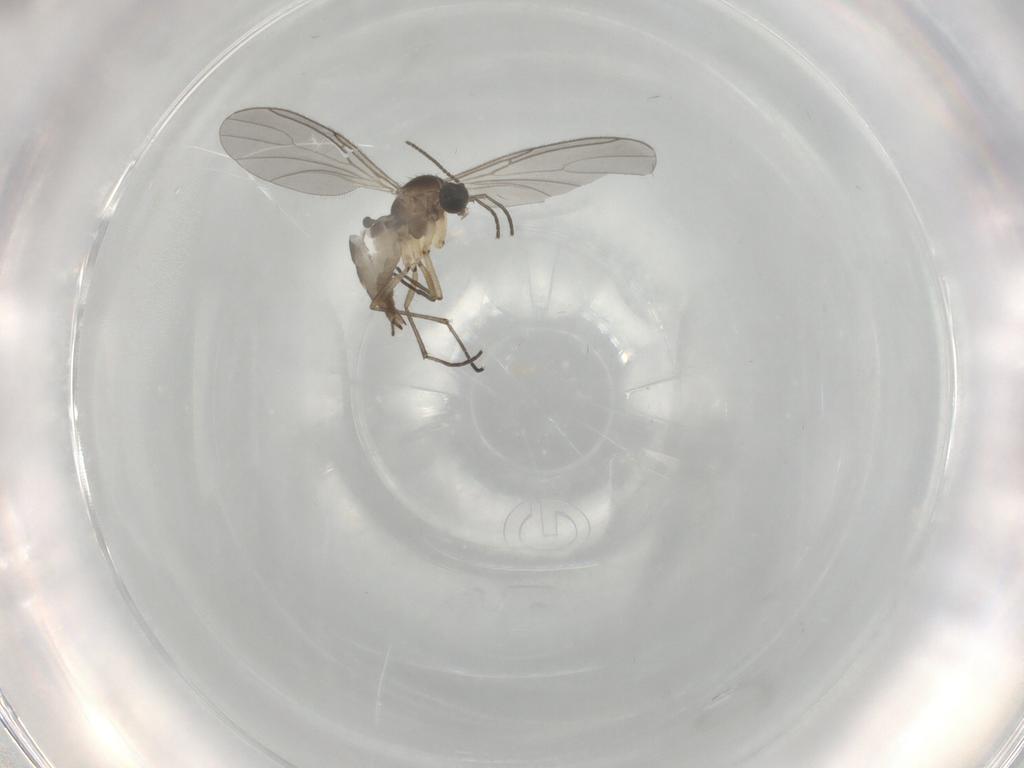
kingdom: Animalia
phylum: Arthropoda
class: Insecta
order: Diptera
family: Sciaridae
